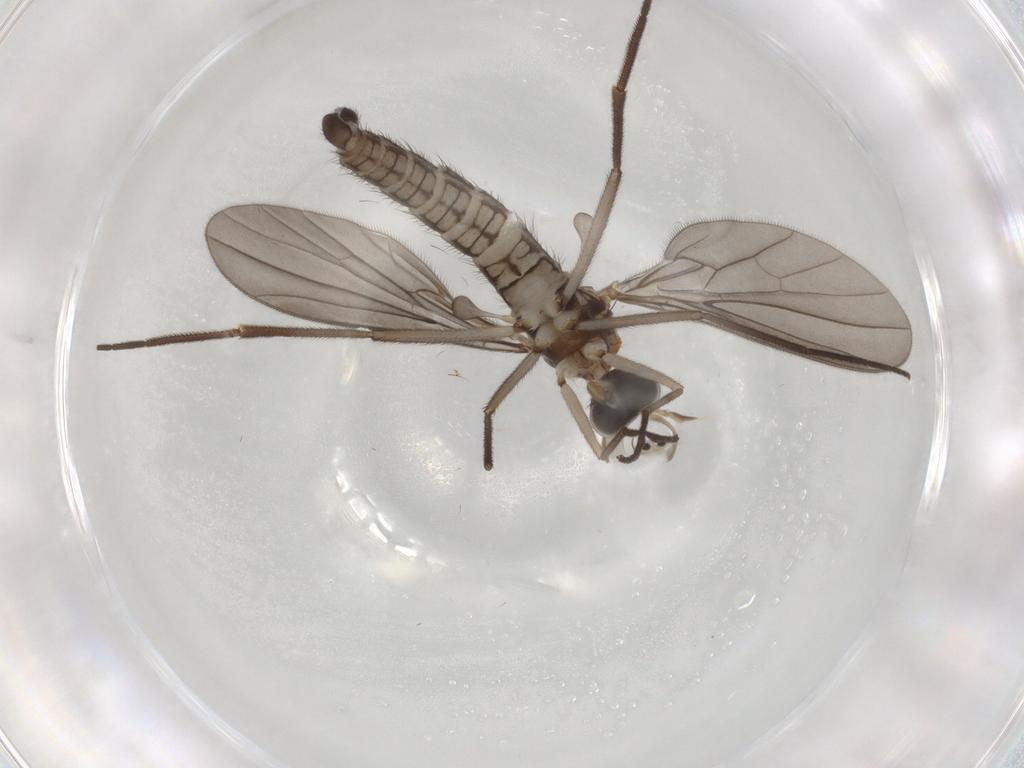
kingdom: Animalia
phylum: Arthropoda
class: Insecta
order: Diptera
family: Empididae
